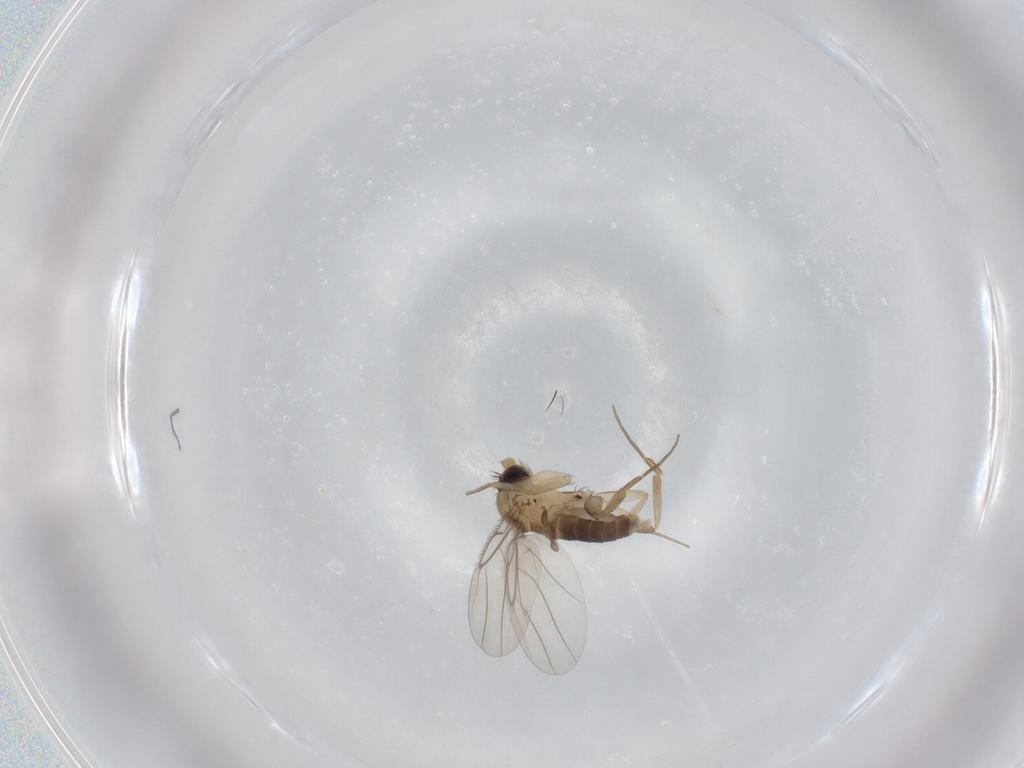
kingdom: Animalia
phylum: Arthropoda
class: Insecta
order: Diptera
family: Phoridae
